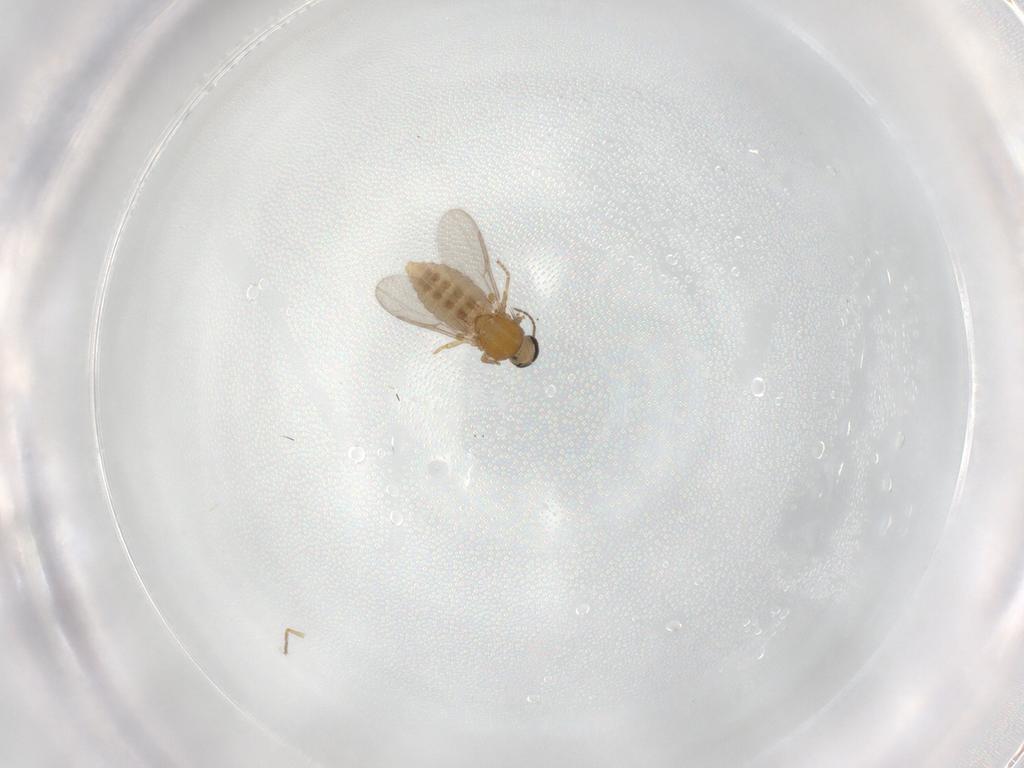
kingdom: Animalia
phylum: Arthropoda
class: Insecta
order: Diptera
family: Ceratopogonidae
